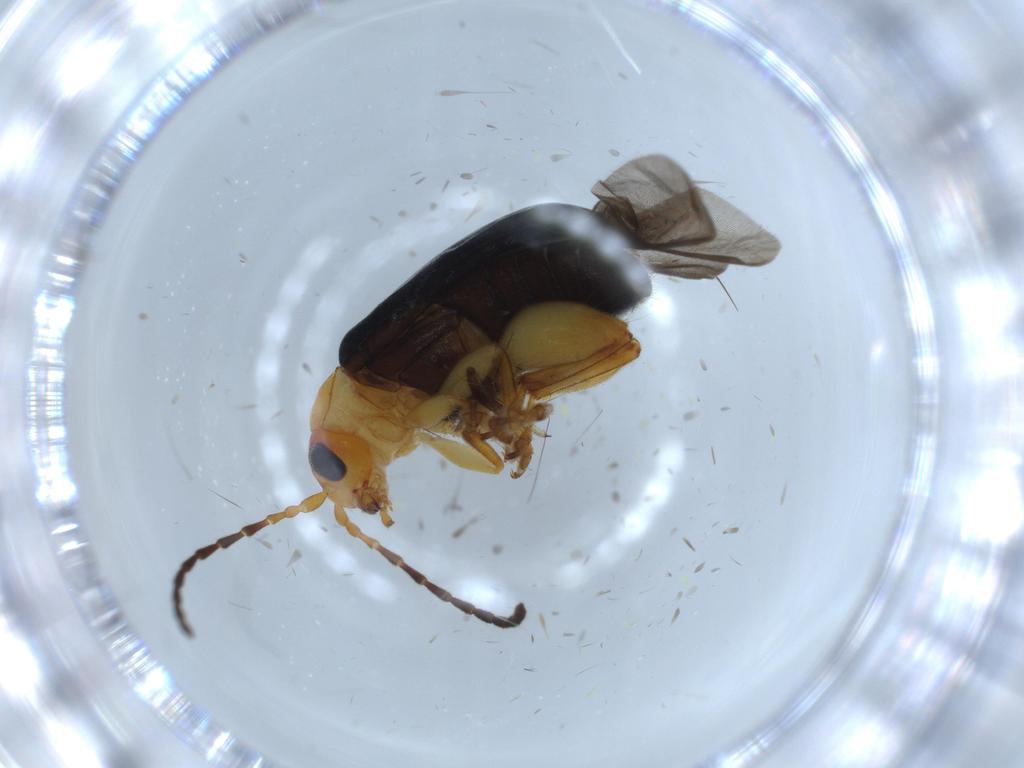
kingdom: Animalia
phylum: Arthropoda
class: Insecta
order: Coleoptera
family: Chrysomelidae
